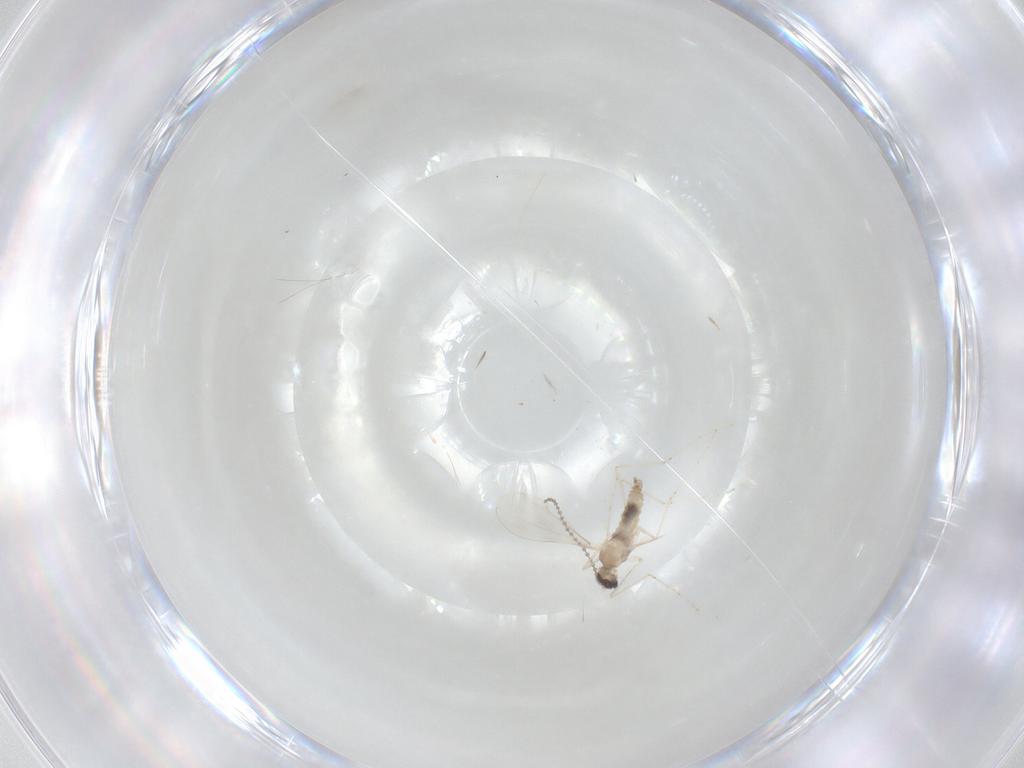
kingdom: Animalia
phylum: Arthropoda
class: Insecta
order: Diptera
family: Cecidomyiidae
